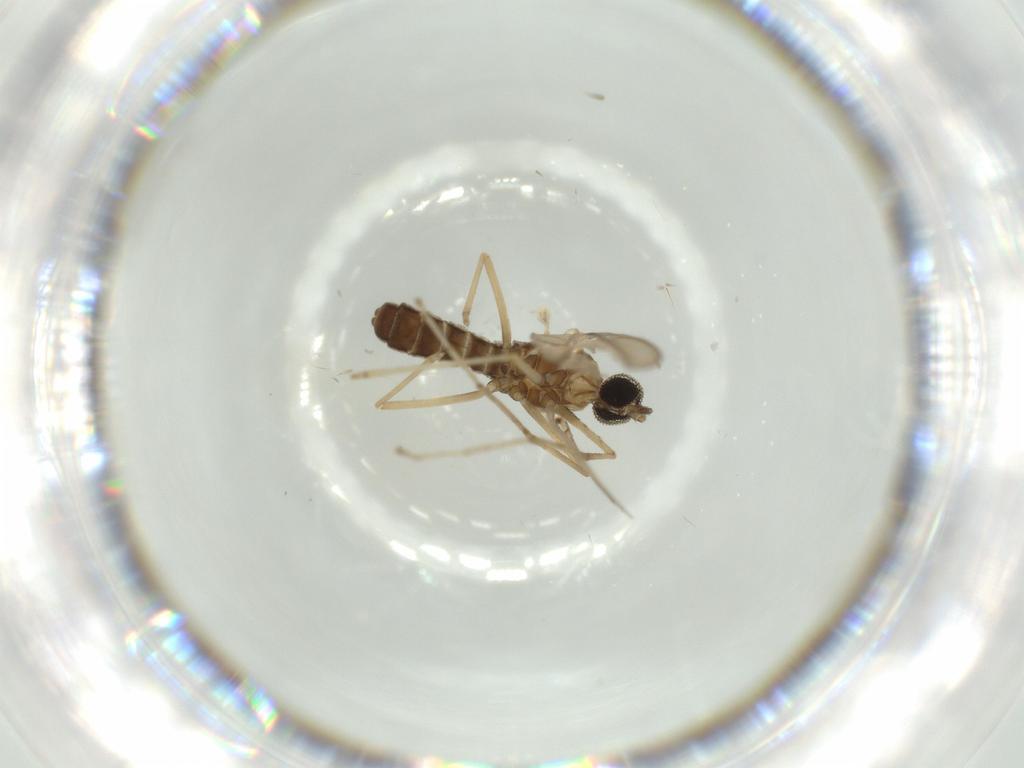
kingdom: Animalia
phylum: Arthropoda
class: Insecta
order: Diptera
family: Cecidomyiidae
